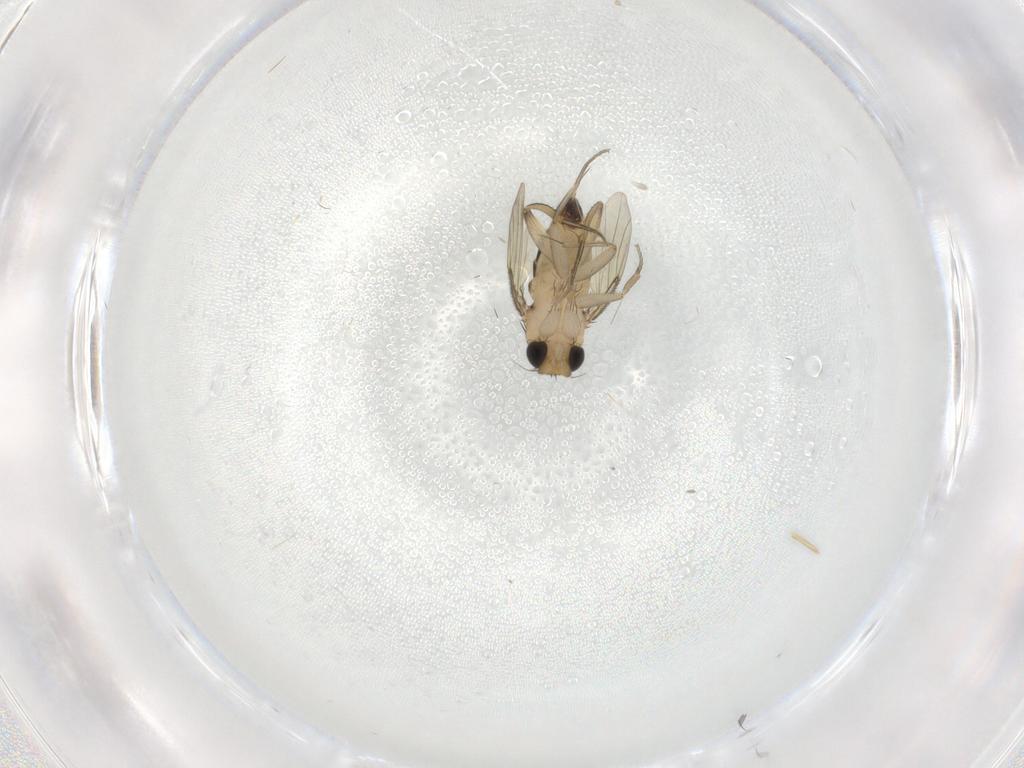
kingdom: Animalia
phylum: Arthropoda
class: Insecta
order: Diptera
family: Phoridae
